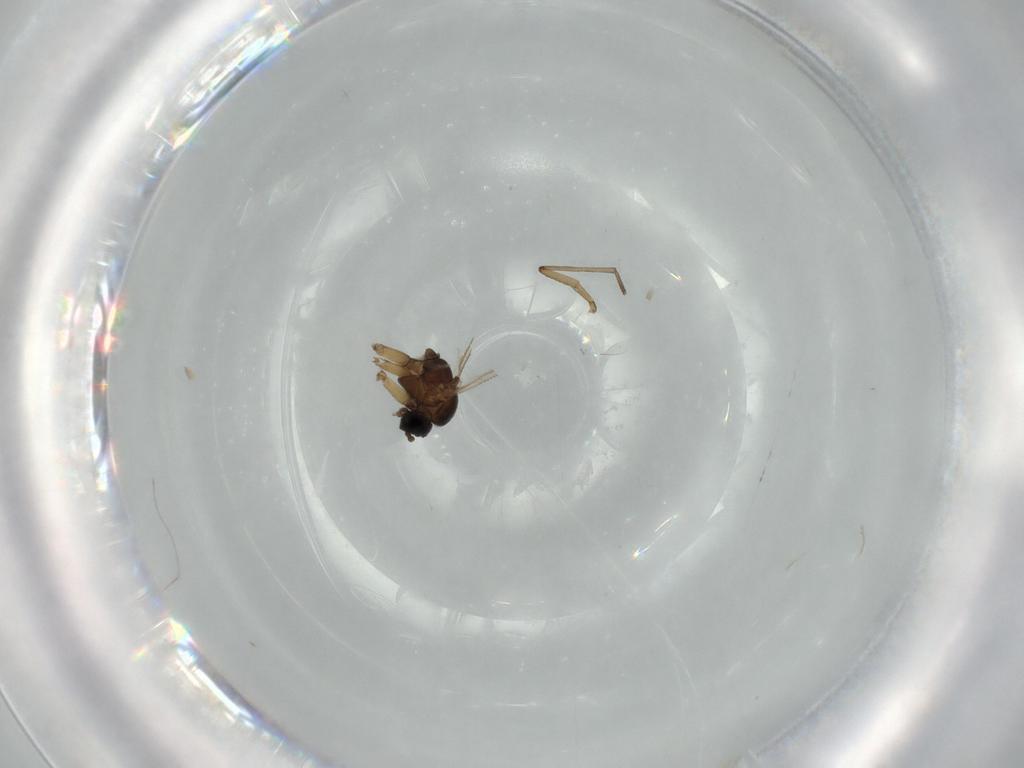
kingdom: Animalia
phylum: Arthropoda
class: Insecta
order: Diptera
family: Sciaridae
